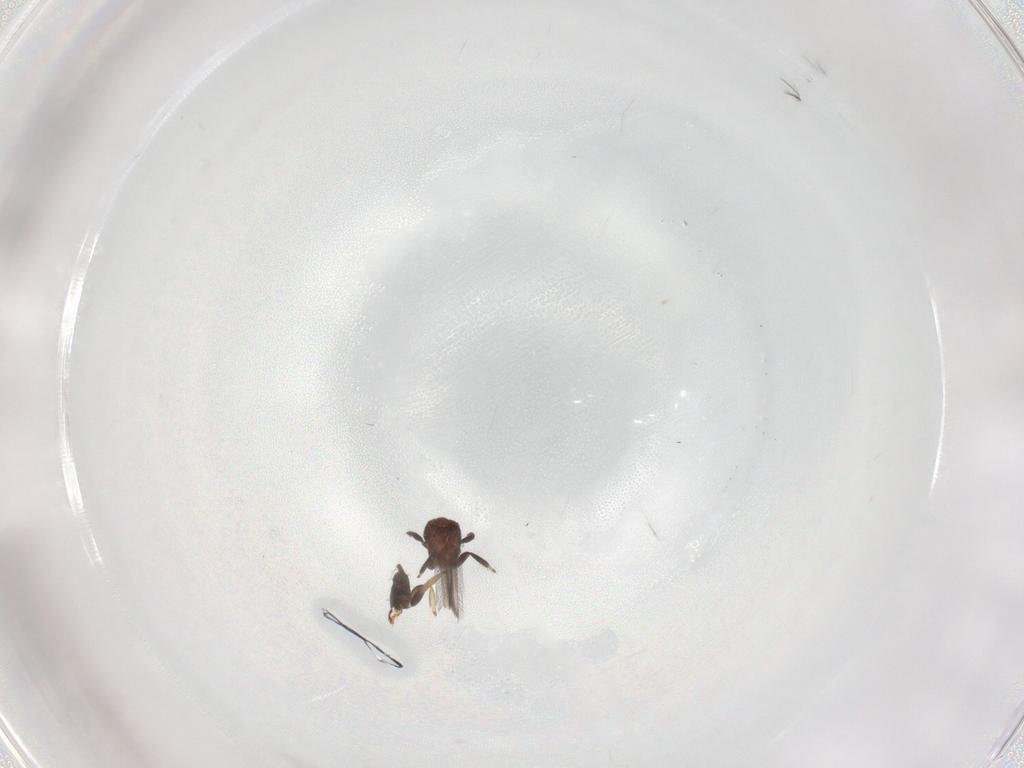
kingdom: Animalia
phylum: Arthropoda
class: Insecta
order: Thysanoptera
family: Thripidae
